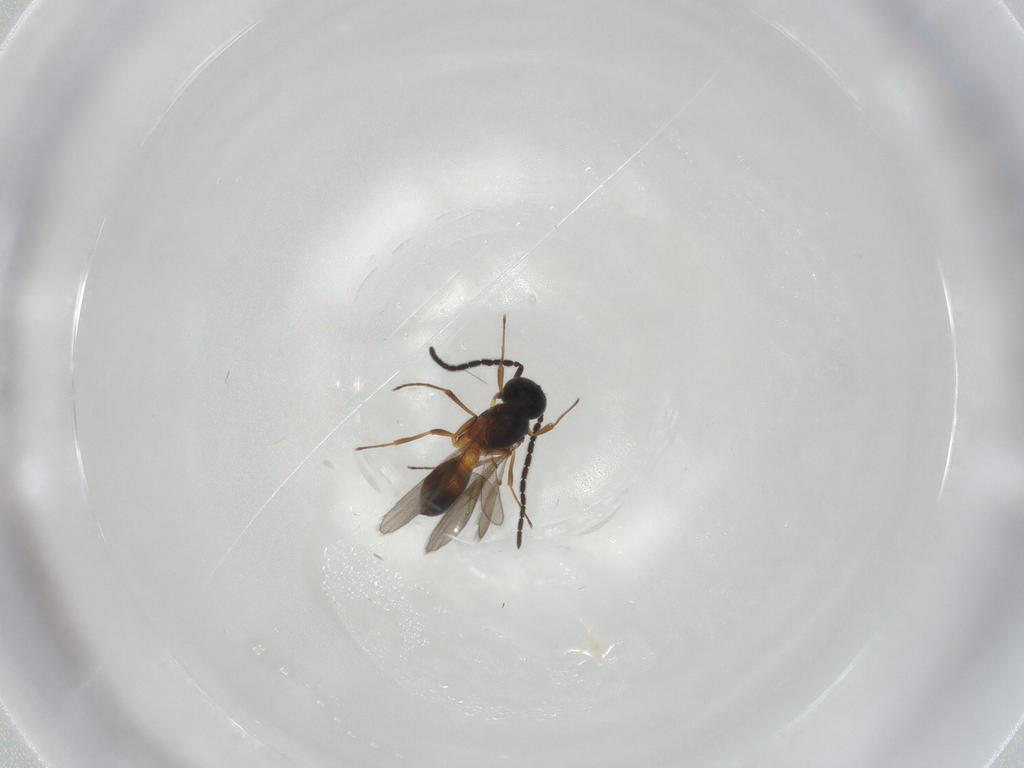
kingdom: Animalia
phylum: Arthropoda
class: Insecta
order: Hymenoptera
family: Scelionidae
